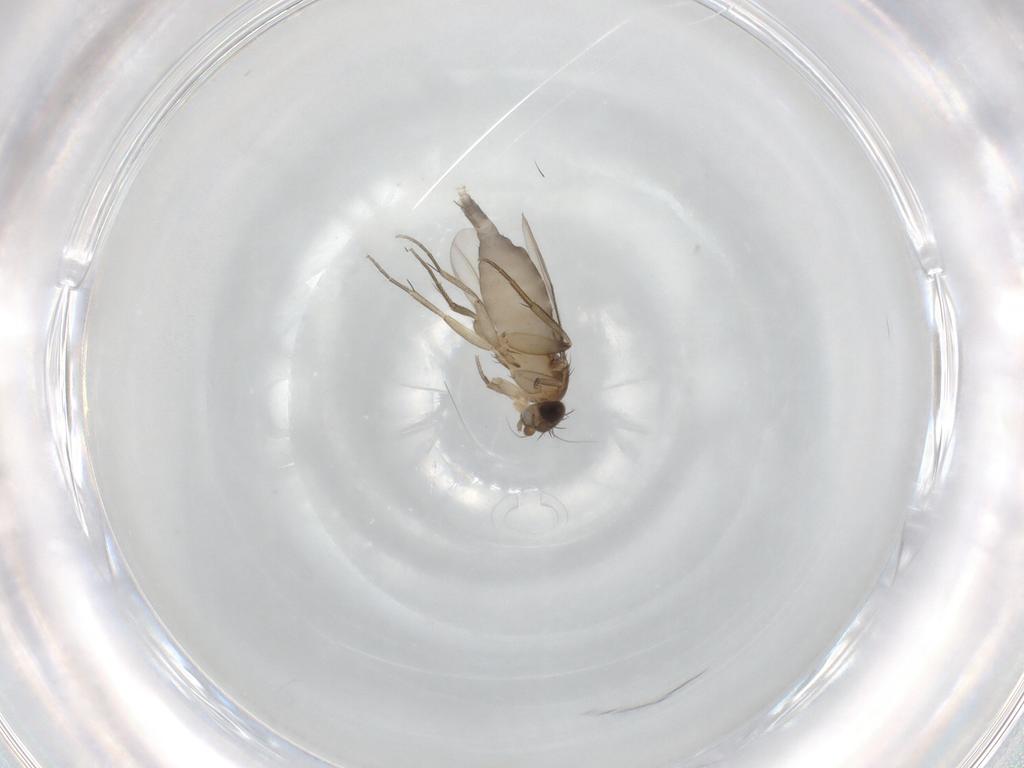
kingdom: Animalia
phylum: Arthropoda
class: Insecta
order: Diptera
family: Phoridae
